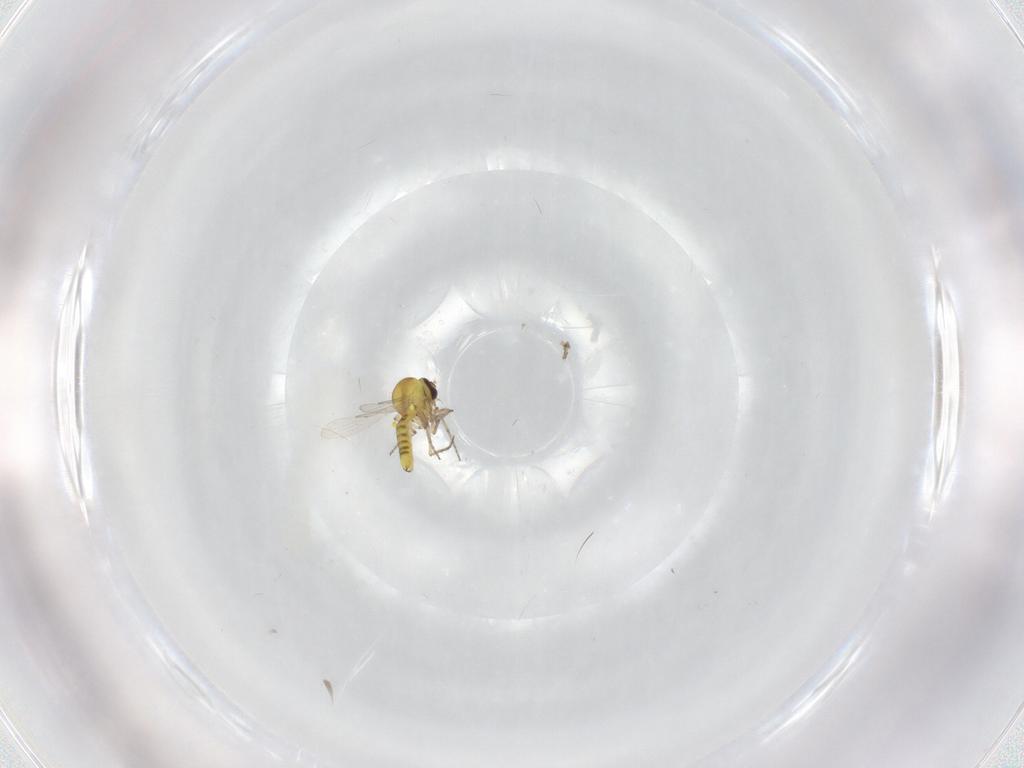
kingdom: Animalia
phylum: Arthropoda
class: Insecta
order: Diptera
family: Ceratopogonidae
